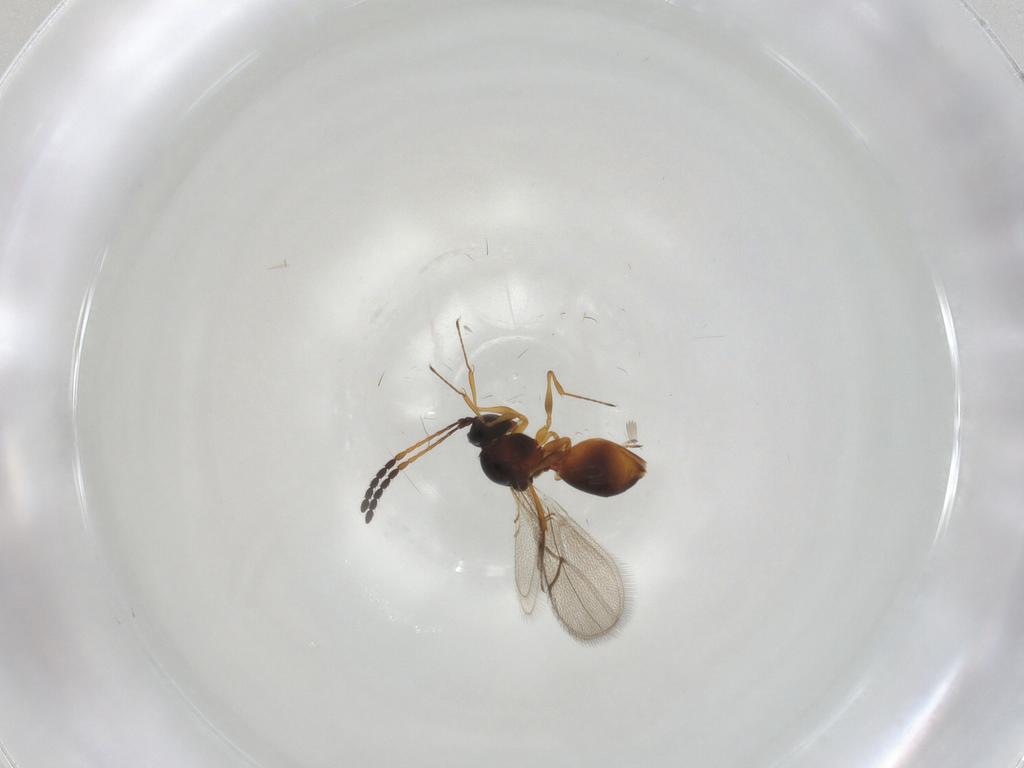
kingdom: Animalia
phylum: Arthropoda
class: Insecta
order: Hymenoptera
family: Figitidae
